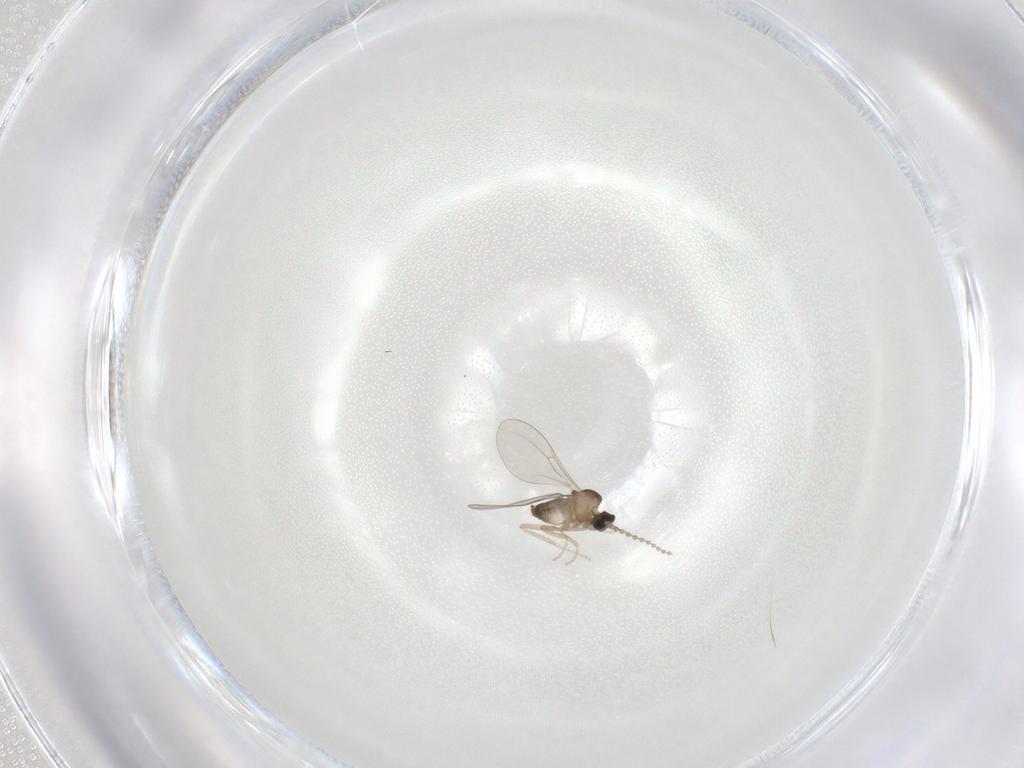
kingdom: Animalia
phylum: Arthropoda
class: Insecta
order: Diptera
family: Cecidomyiidae
